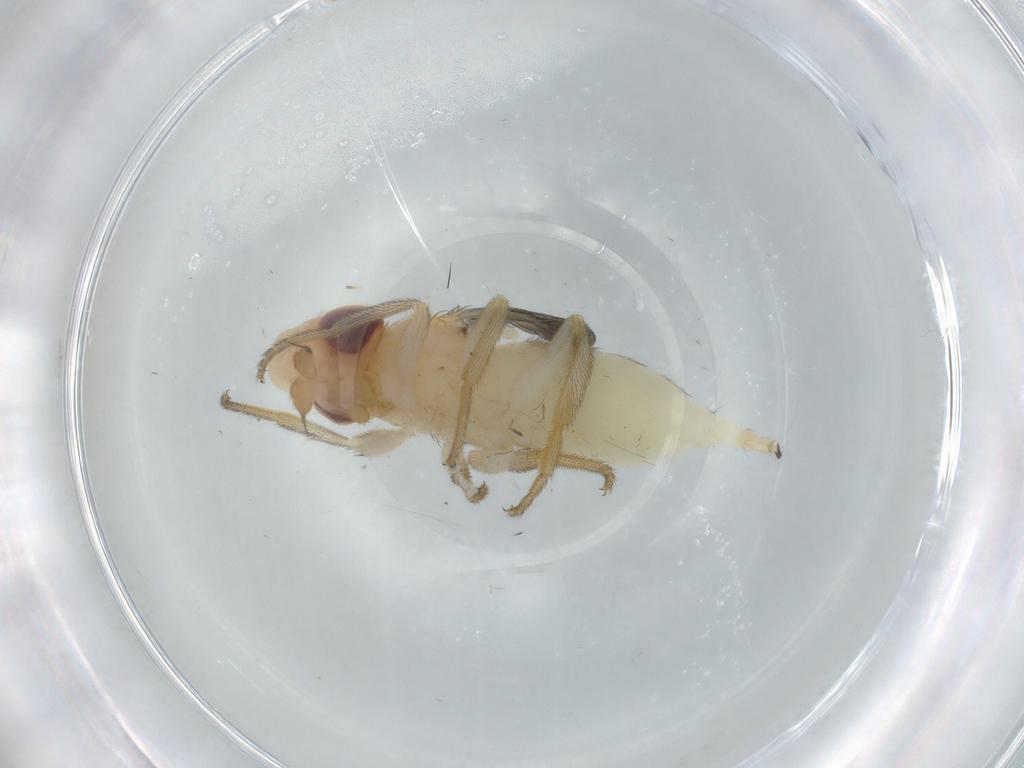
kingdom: Animalia
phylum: Arthropoda
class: Insecta
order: Diptera
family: Chloropidae
